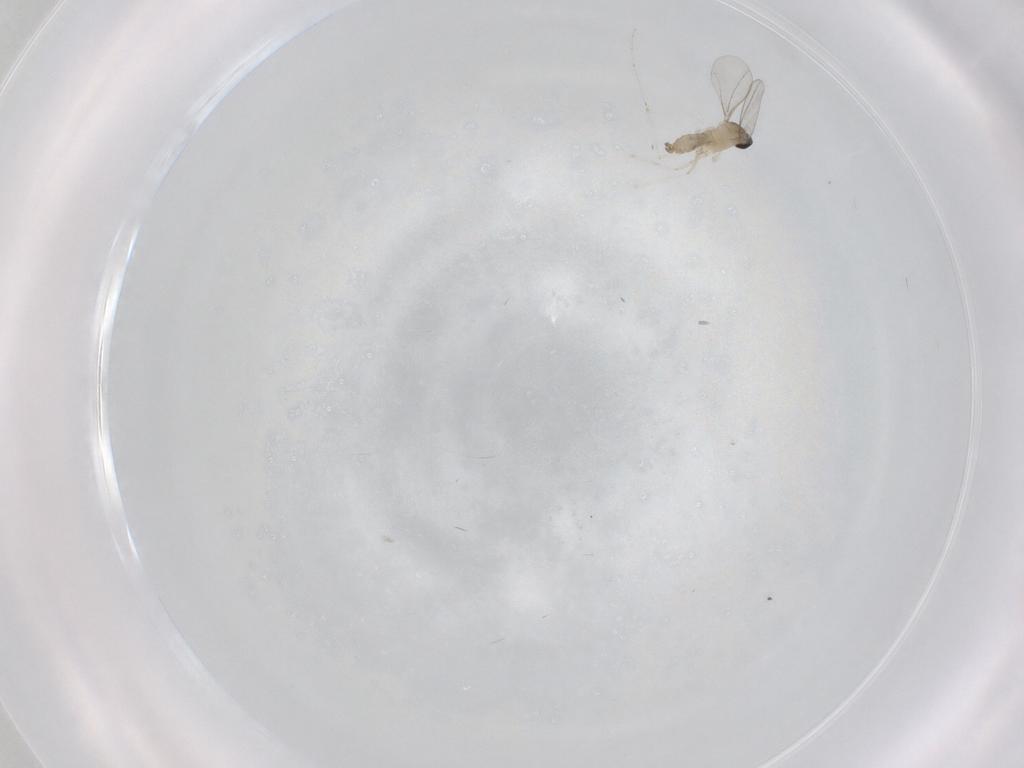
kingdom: Animalia
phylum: Arthropoda
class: Insecta
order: Diptera
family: Cecidomyiidae
